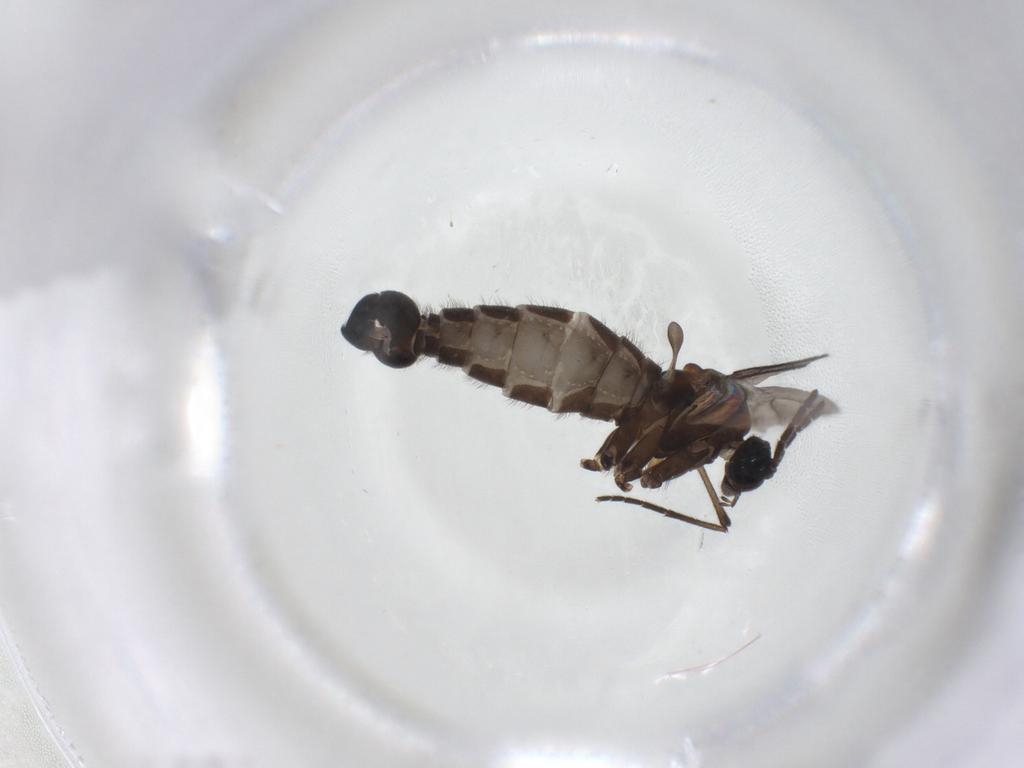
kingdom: Animalia
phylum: Arthropoda
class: Insecta
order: Diptera
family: Sciaridae
